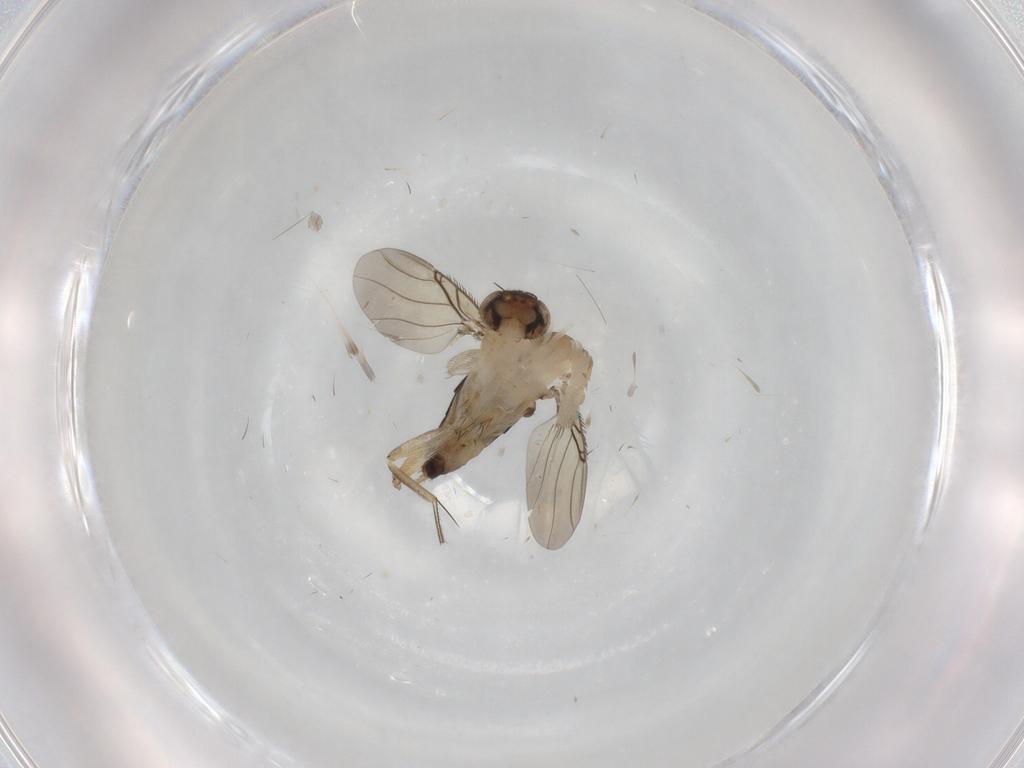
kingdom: Animalia
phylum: Arthropoda
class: Insecta
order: Diptera
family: Phoridae
